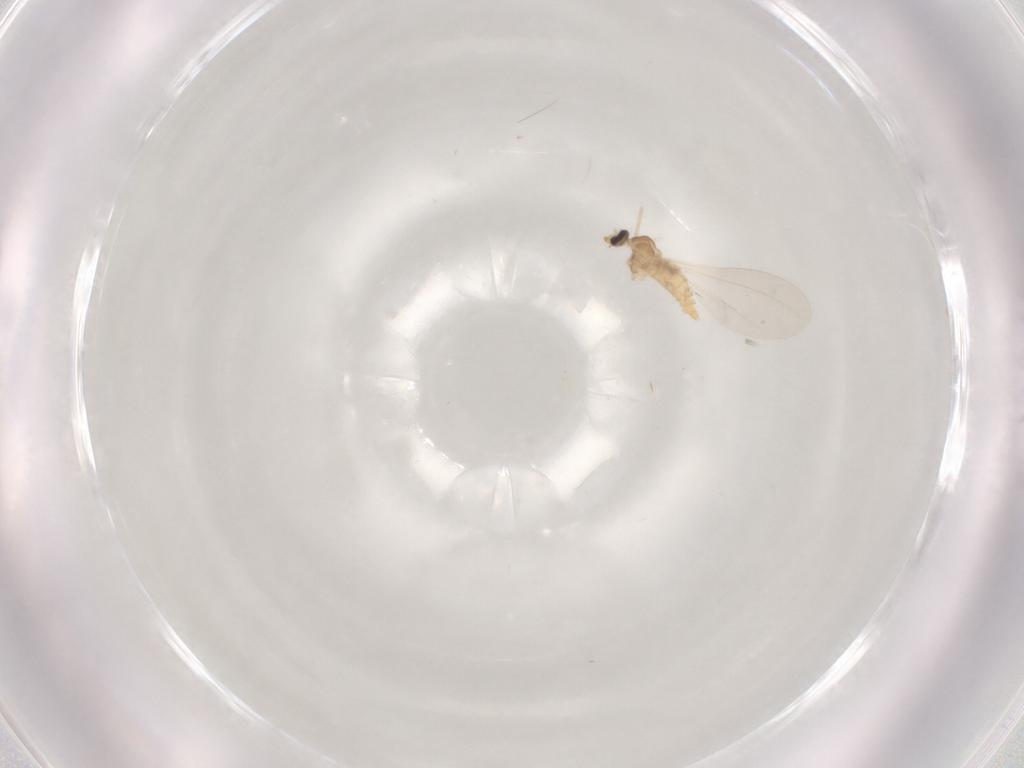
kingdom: Animalia
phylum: Arthropoda
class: Insecta
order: Diptera
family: Cecidomyiidae
